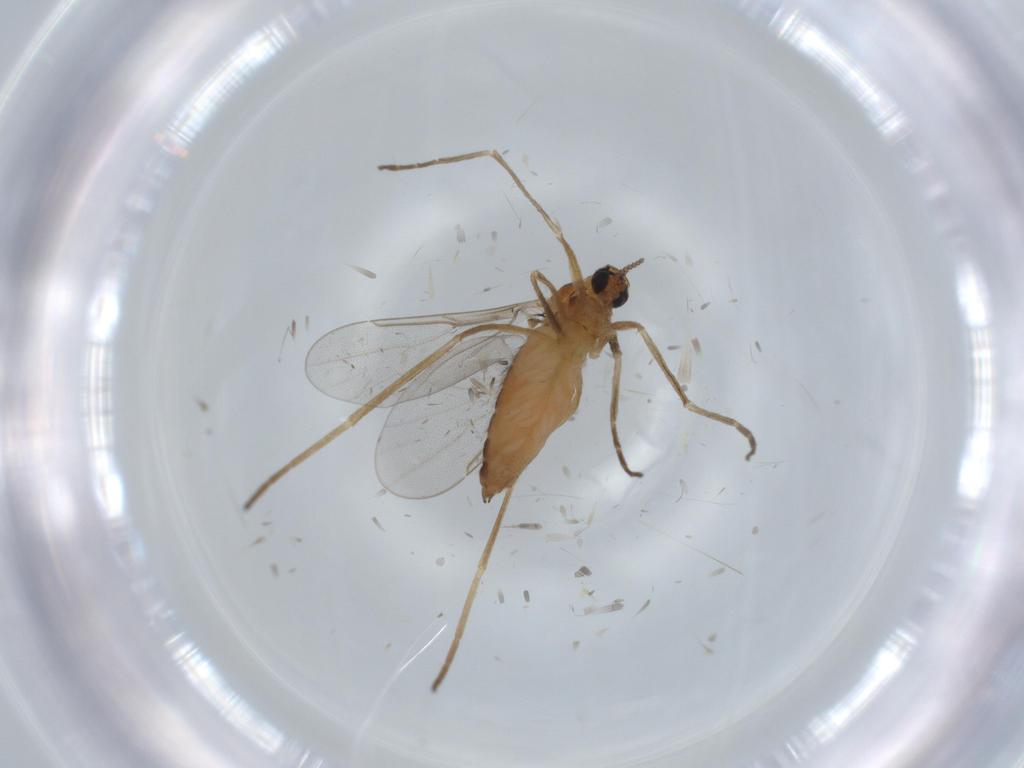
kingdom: Animalia
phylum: Arthropoda
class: Insecta
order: Diptera
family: Cecidomyiidae
